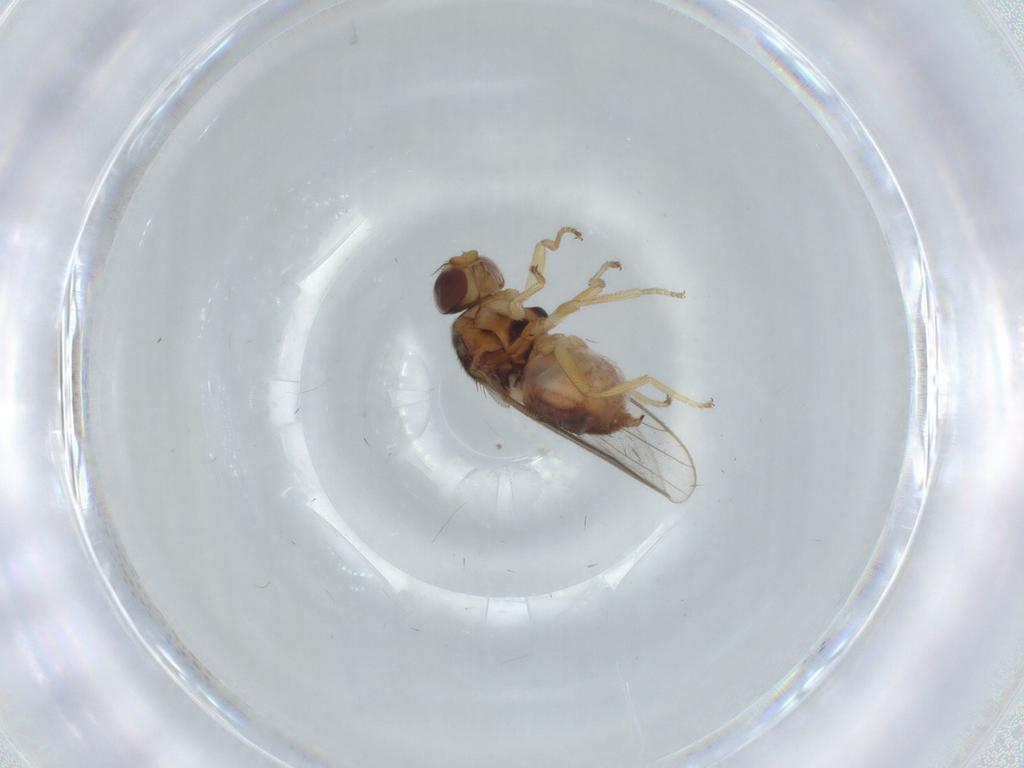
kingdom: Animalia
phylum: Arthropoda
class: Insecta
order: Diptera
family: Chloropidae
